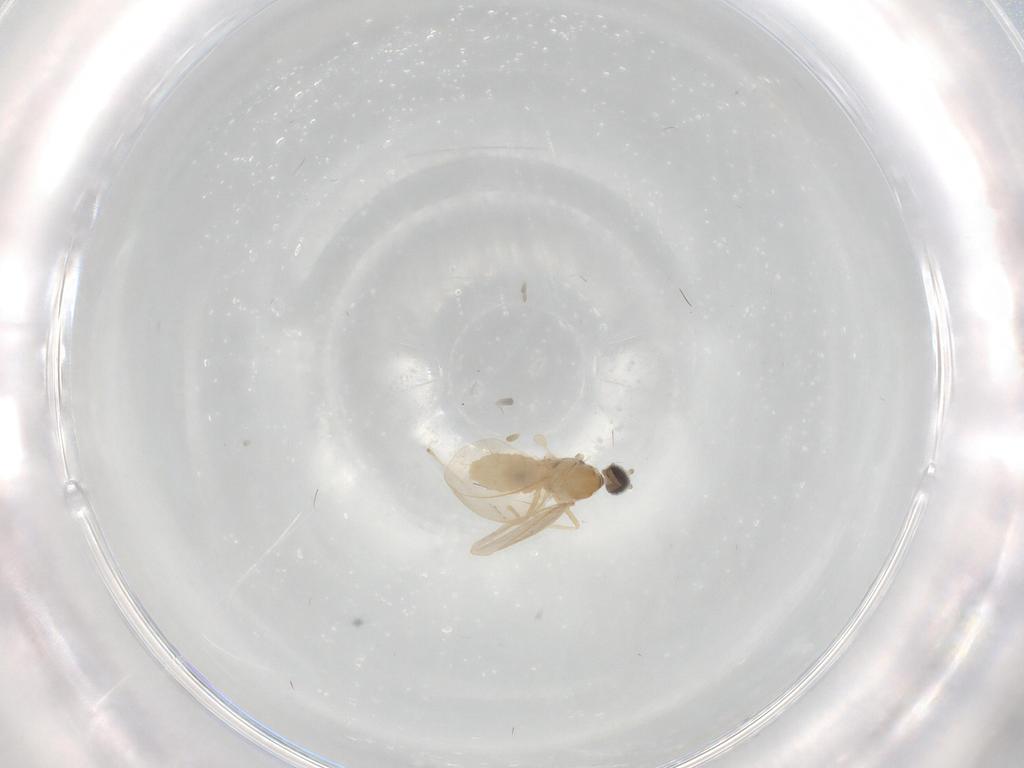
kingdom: Animalia
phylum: Arthropoda
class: Insecta
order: Diptera
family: Cecidomyiidae
